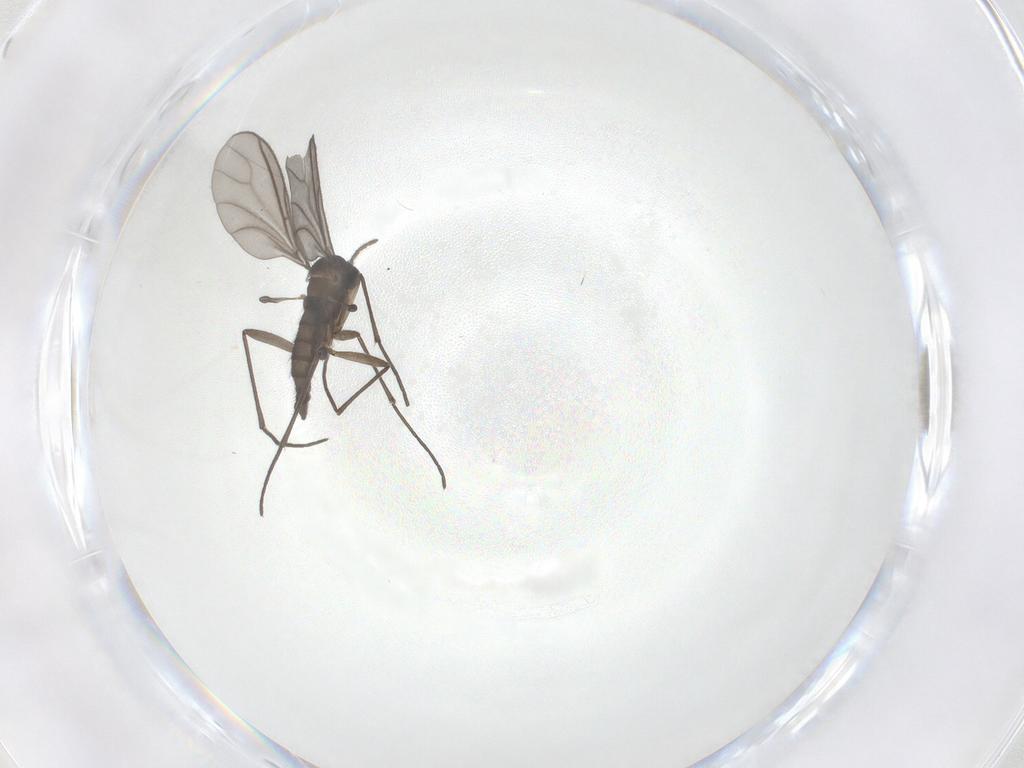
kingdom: Animalia
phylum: Arthropoda
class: Insecta
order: Diptera
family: Sciaridae
